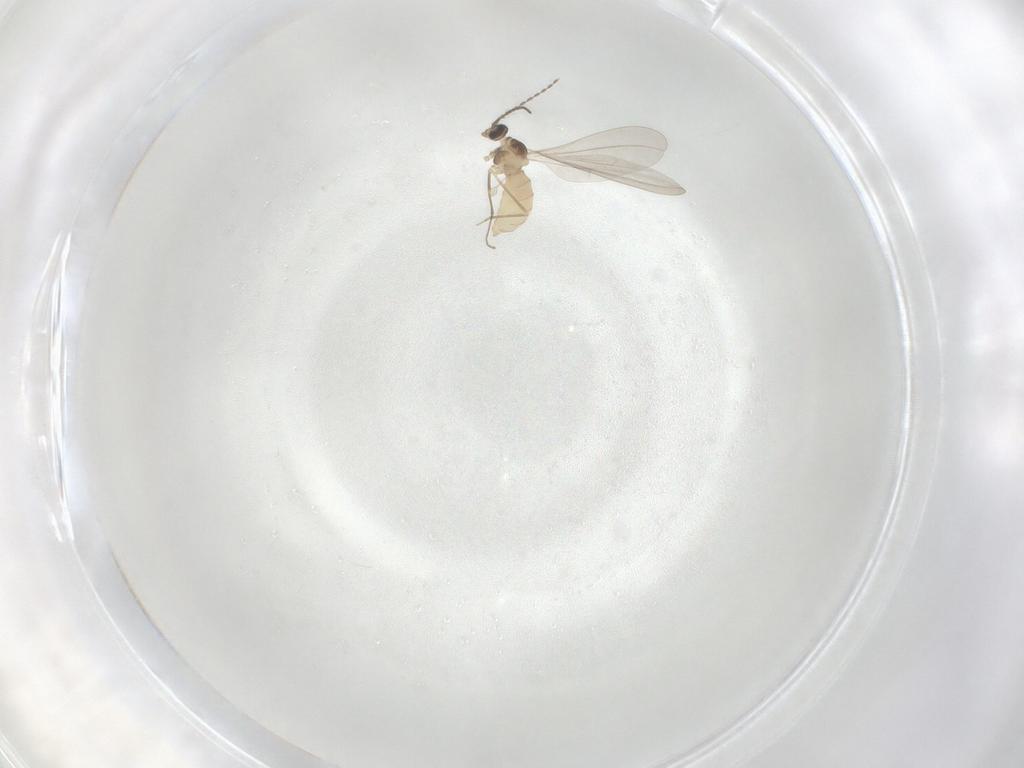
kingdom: Animalia
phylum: Arthropoda
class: Insecta
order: Diptera
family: Cecidomyiidae
